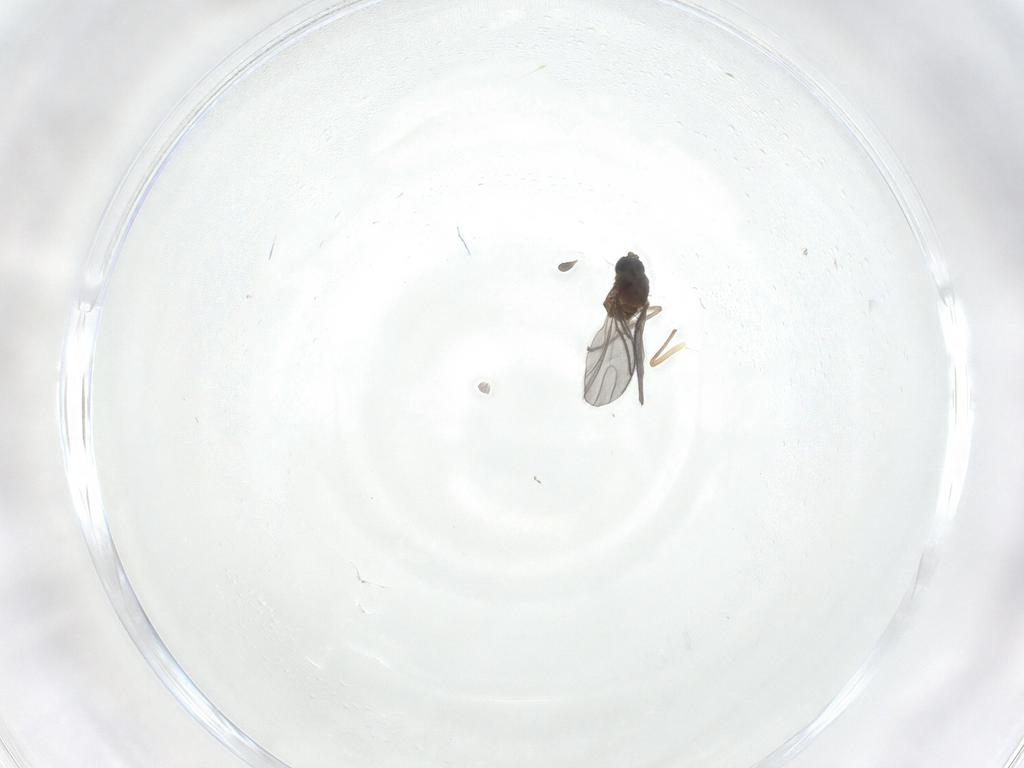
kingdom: Animalia
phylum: Arthropoda
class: Insecta
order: Diptera
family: Sciaridae
